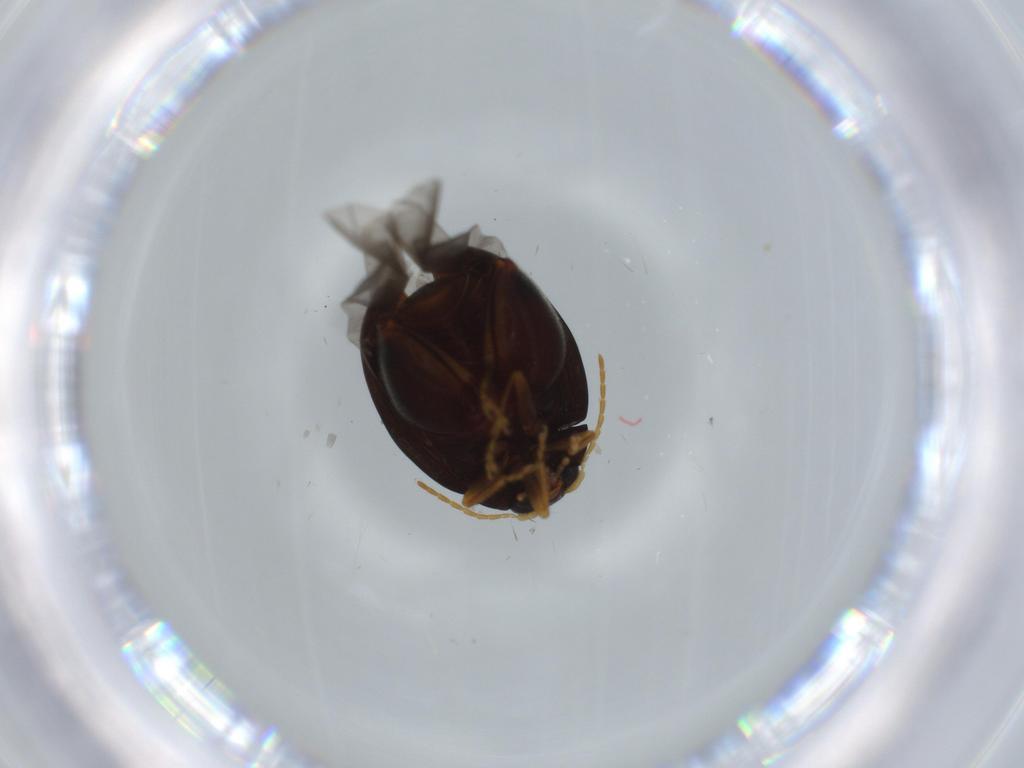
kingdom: Animalia
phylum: Arthropoda
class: Insecta
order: Coleoptera
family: Chrysomelidae
